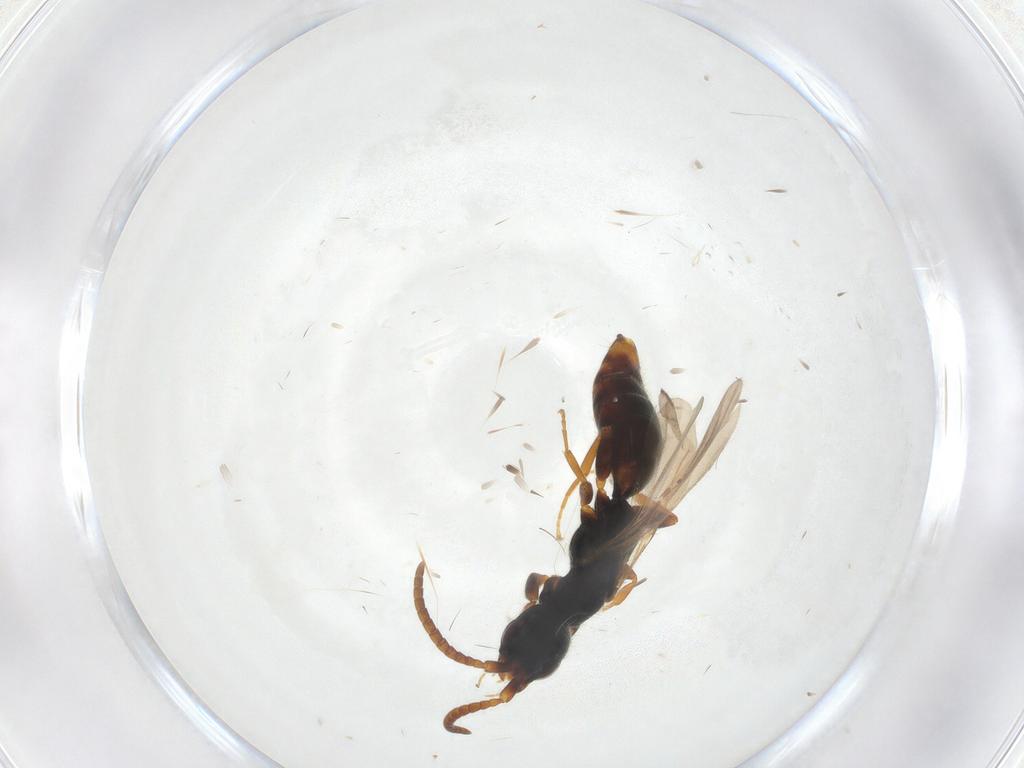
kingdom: Animalia
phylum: Arthropoda
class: Insecta
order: Hymenoptera
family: Bethylidae
